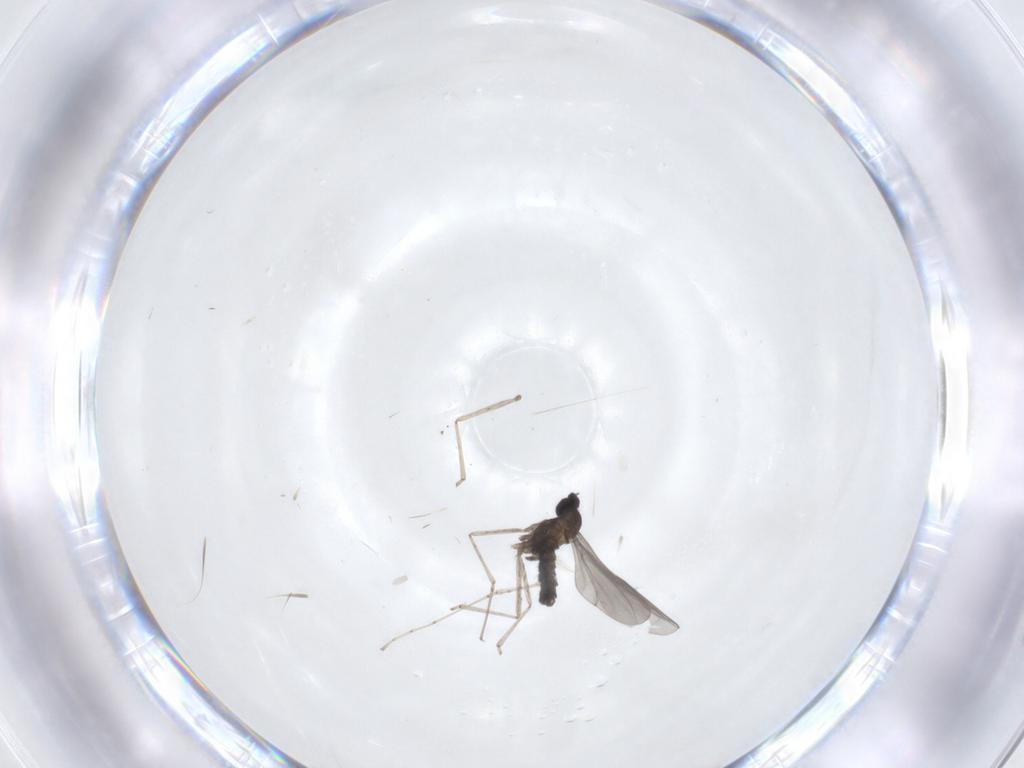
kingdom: Animalia
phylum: Arthropoda
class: Insecta
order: Diptera
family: Cecidomyiidae
